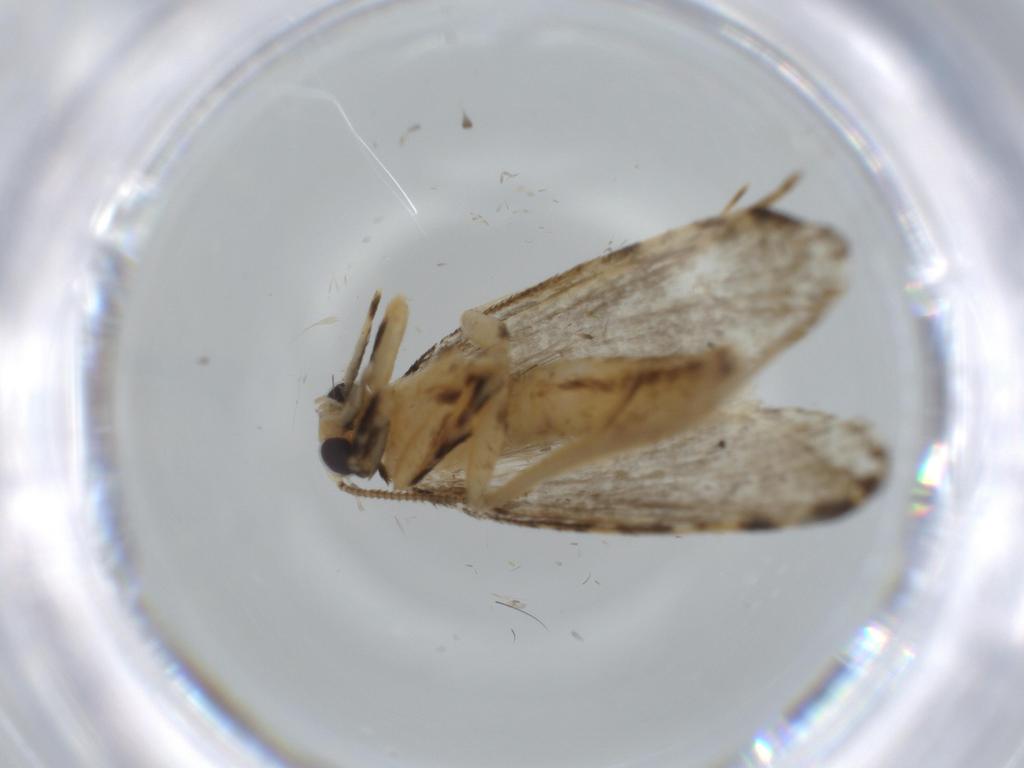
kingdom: Animalia
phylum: Arthropoda
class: Insecta
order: Lepidoptera
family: Tineidae
